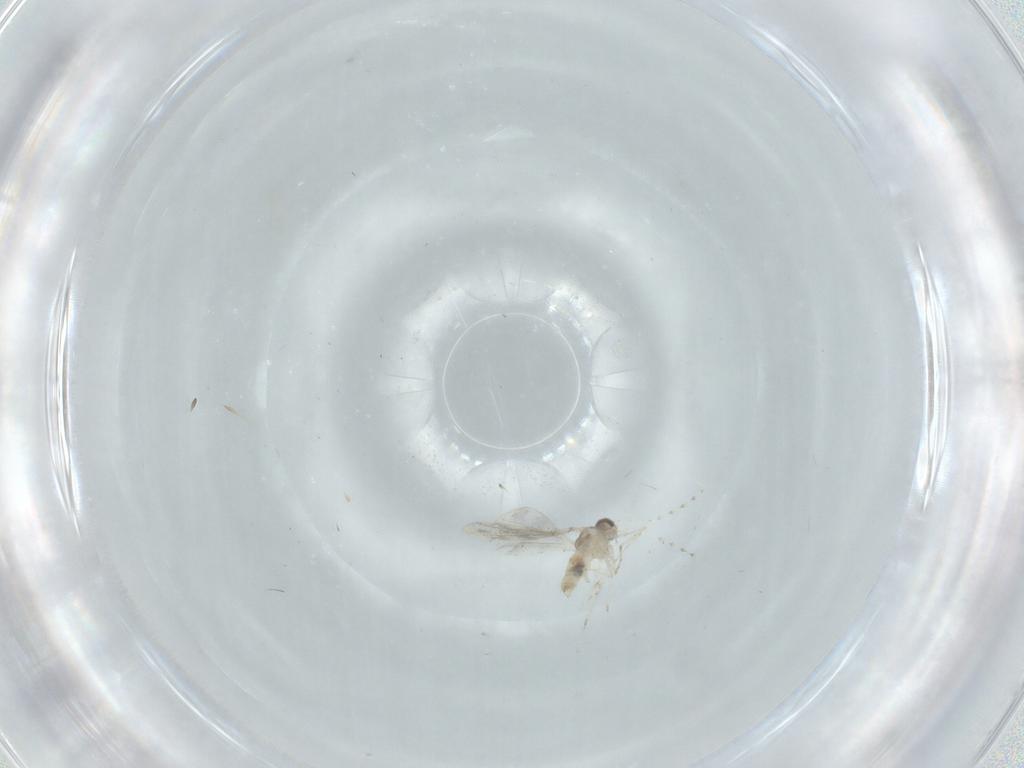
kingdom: Animalia
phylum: Arthropoda
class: Insecta
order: Diptera
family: Cecidomyiidae
